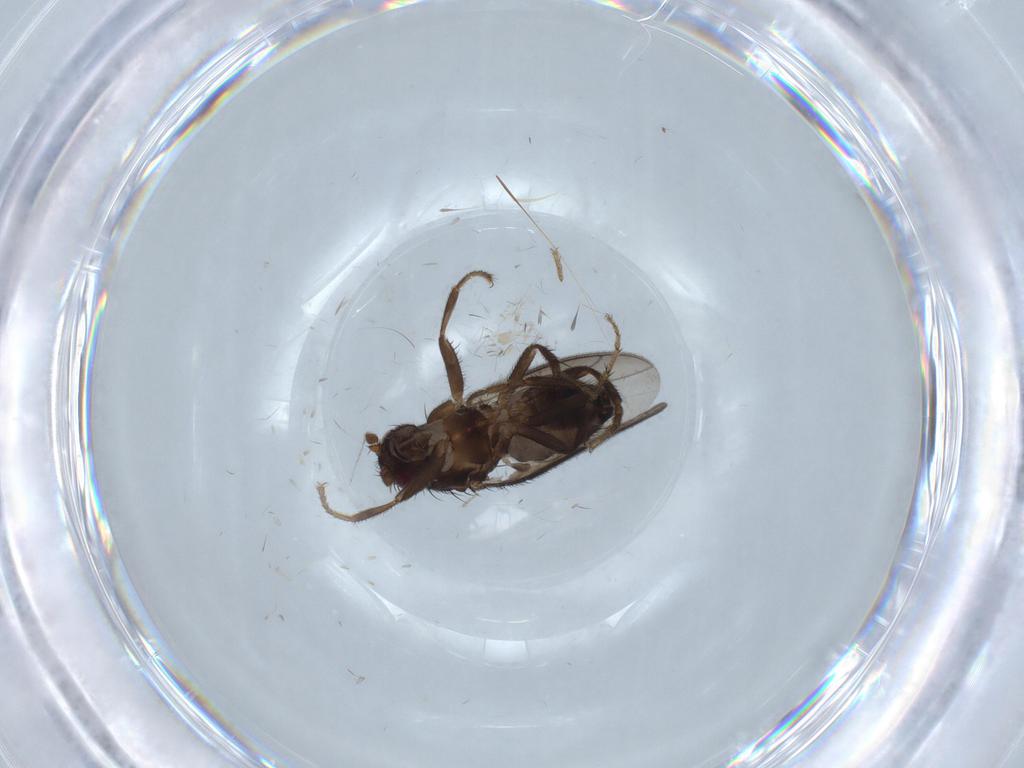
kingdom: Animalia
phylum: Arthropoda
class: Insecta
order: Diptera
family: Sphaeroceridae
